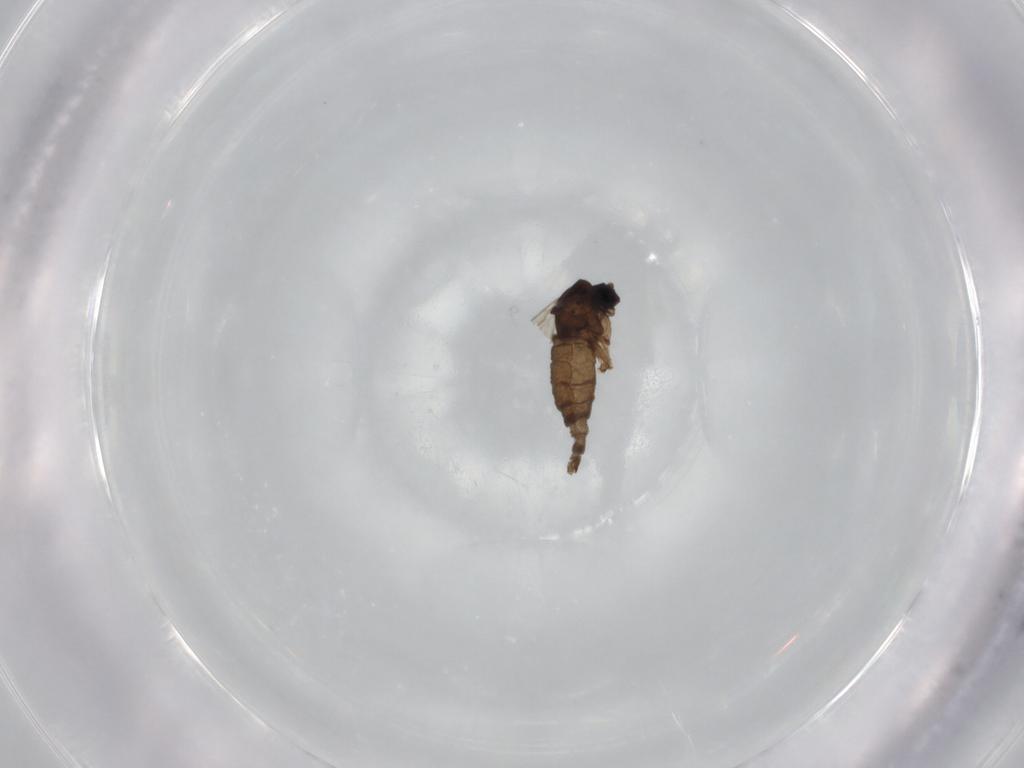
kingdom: Animalia
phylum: Arthropoda
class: Insecta
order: Diptera
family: Sciaridae
